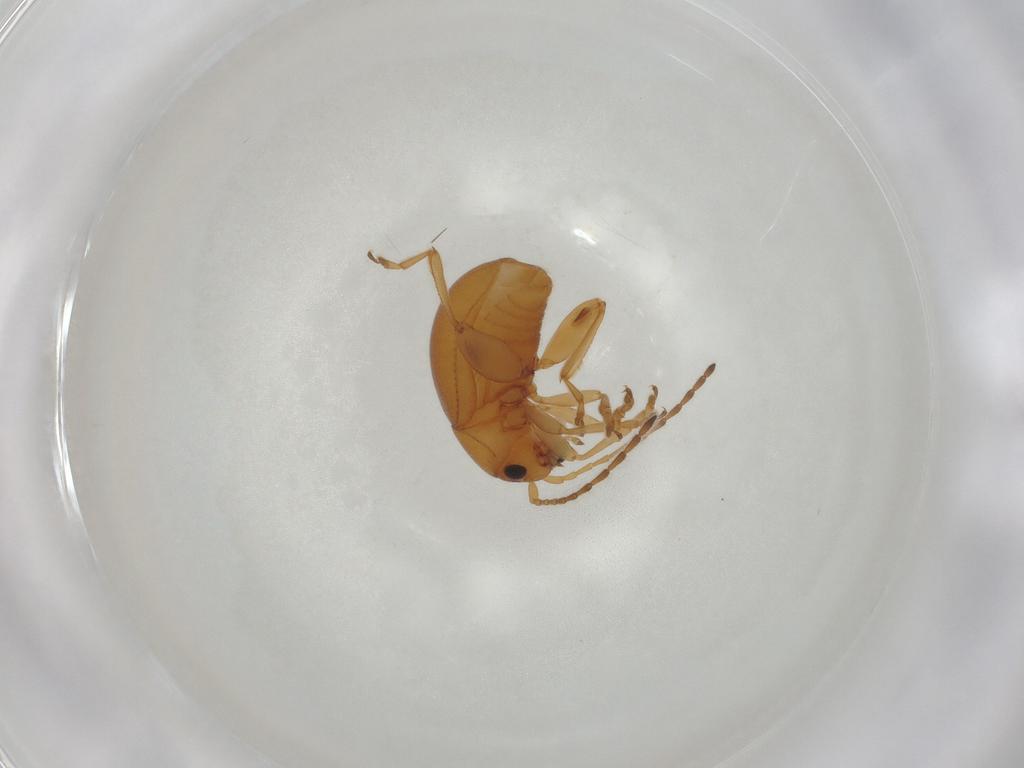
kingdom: Animalia
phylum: Arthropoda
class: Insecta
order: Coleoptera
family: Chrysomelidae
